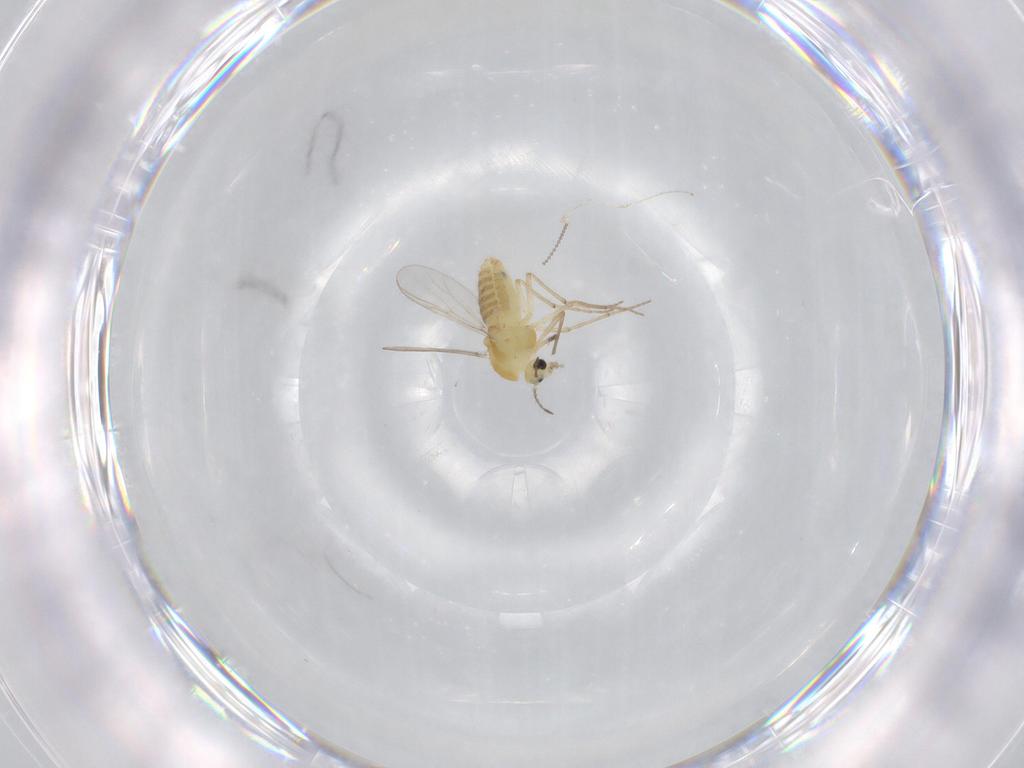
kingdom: Animalia
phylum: Arthropoda
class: Insecta
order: Diptera
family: Chironomidae
